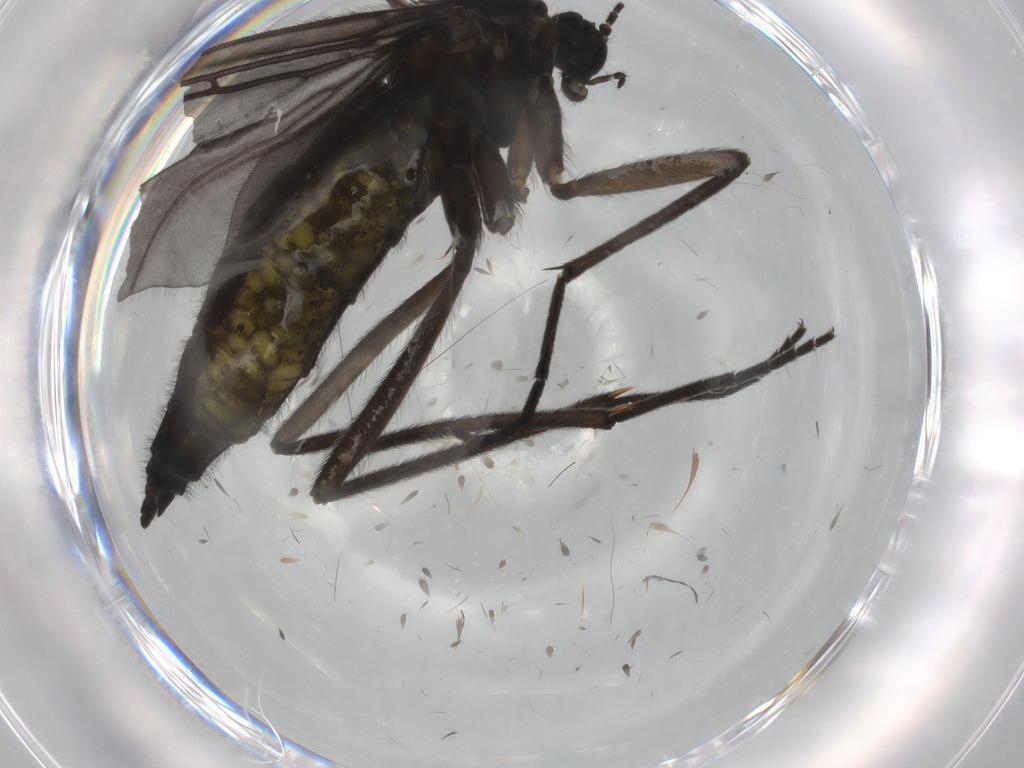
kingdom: Animalia
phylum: Arthropoda
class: Insecta
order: Diptera
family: Sciaridae
